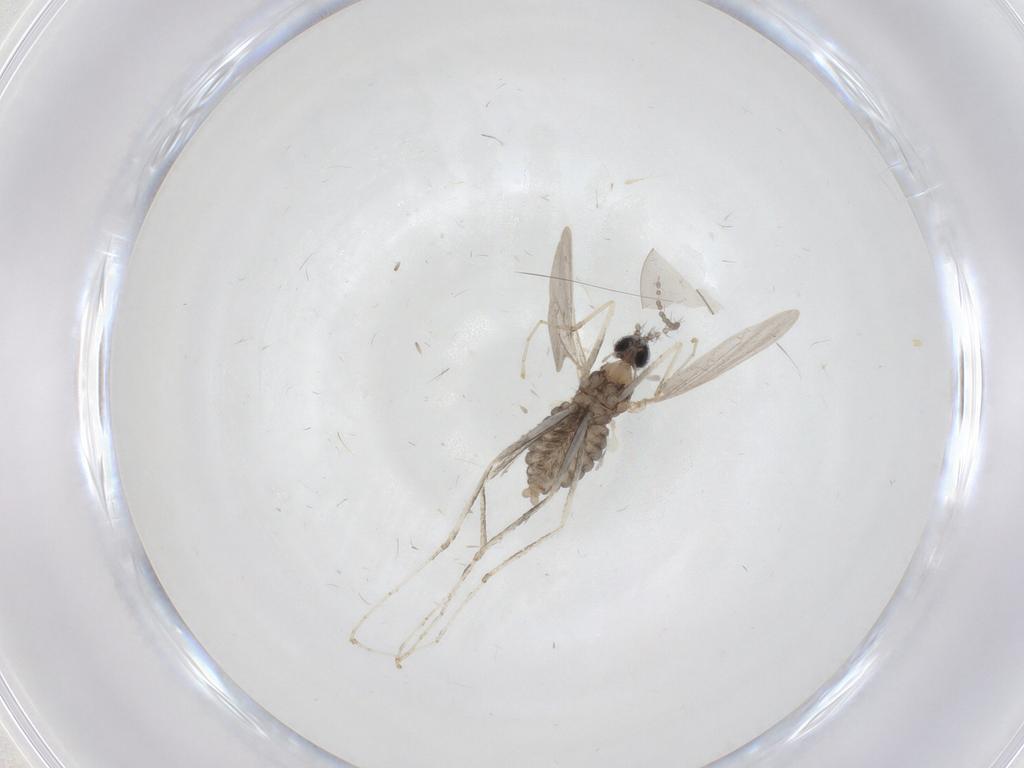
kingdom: Animalia
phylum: Arthropoda
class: Insecta
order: Diptera
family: Cecidomyiidae
